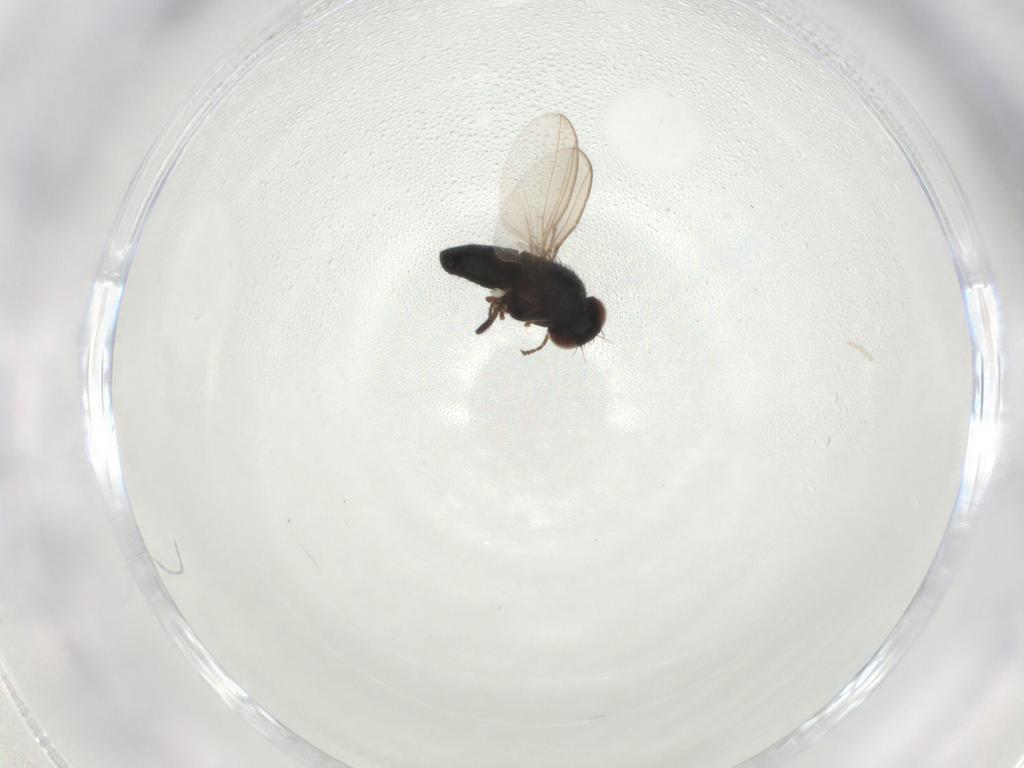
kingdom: Animalia
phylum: Arthropoda
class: Insecta
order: Diptera
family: Carnidae
